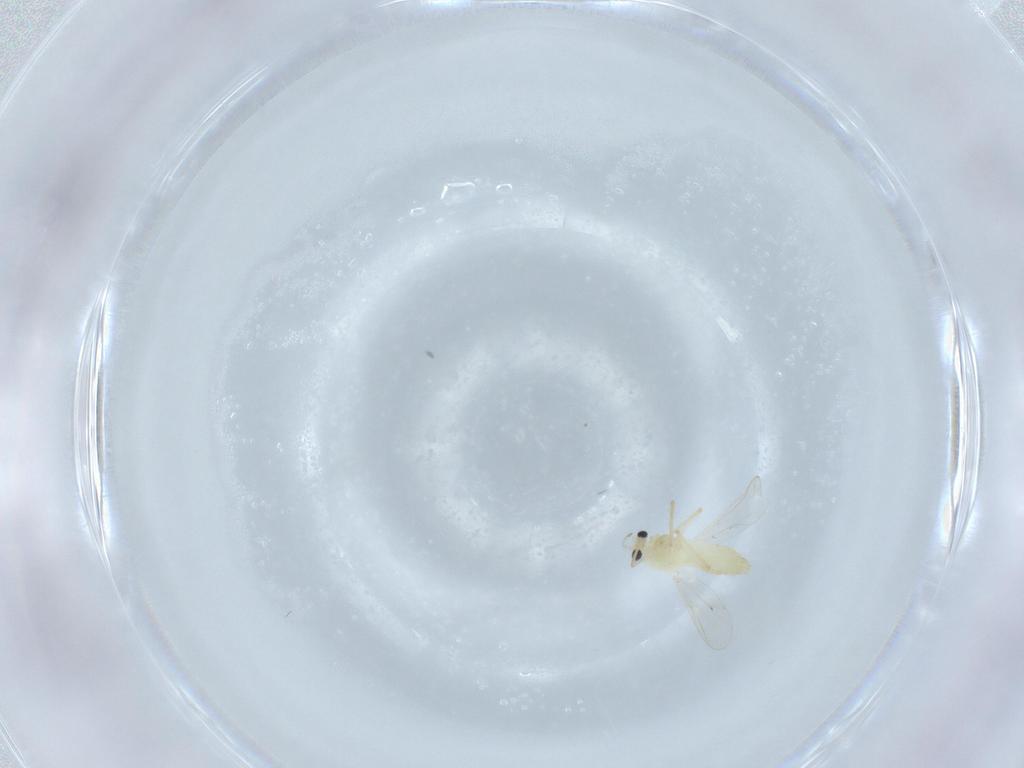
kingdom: Animalia
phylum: Arthropoda
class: Insecta
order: Diptera
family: Chironomidae
